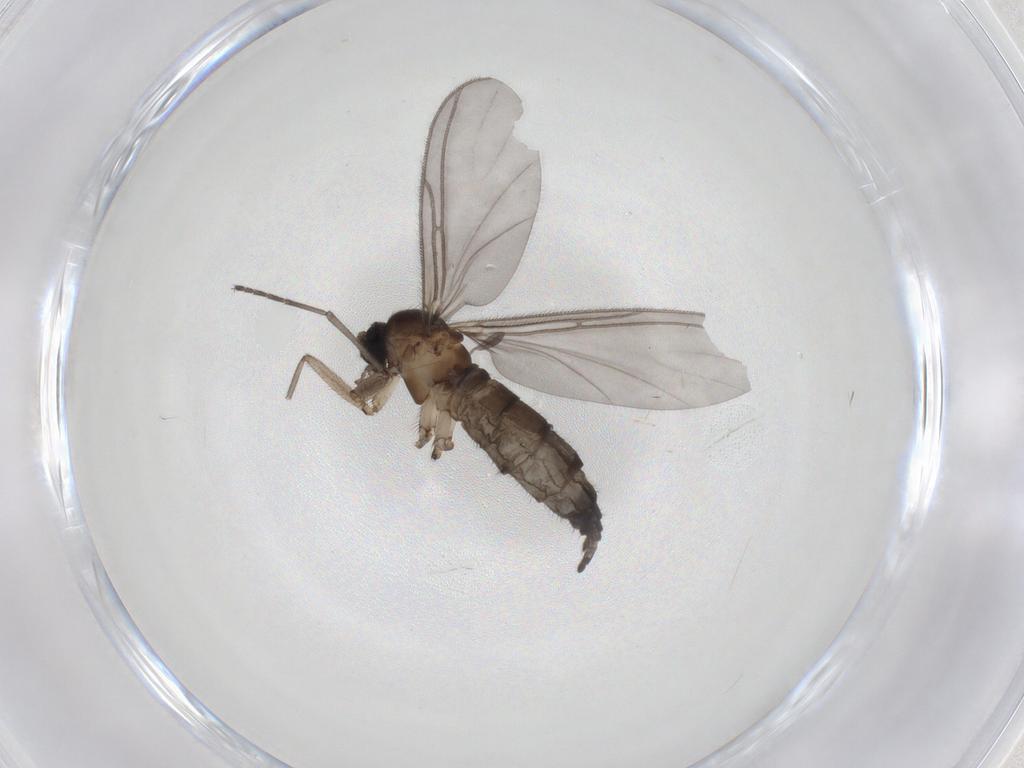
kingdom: Animalia
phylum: Arthropoda
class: Insecta
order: Diptera
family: Cecidomyiidae
